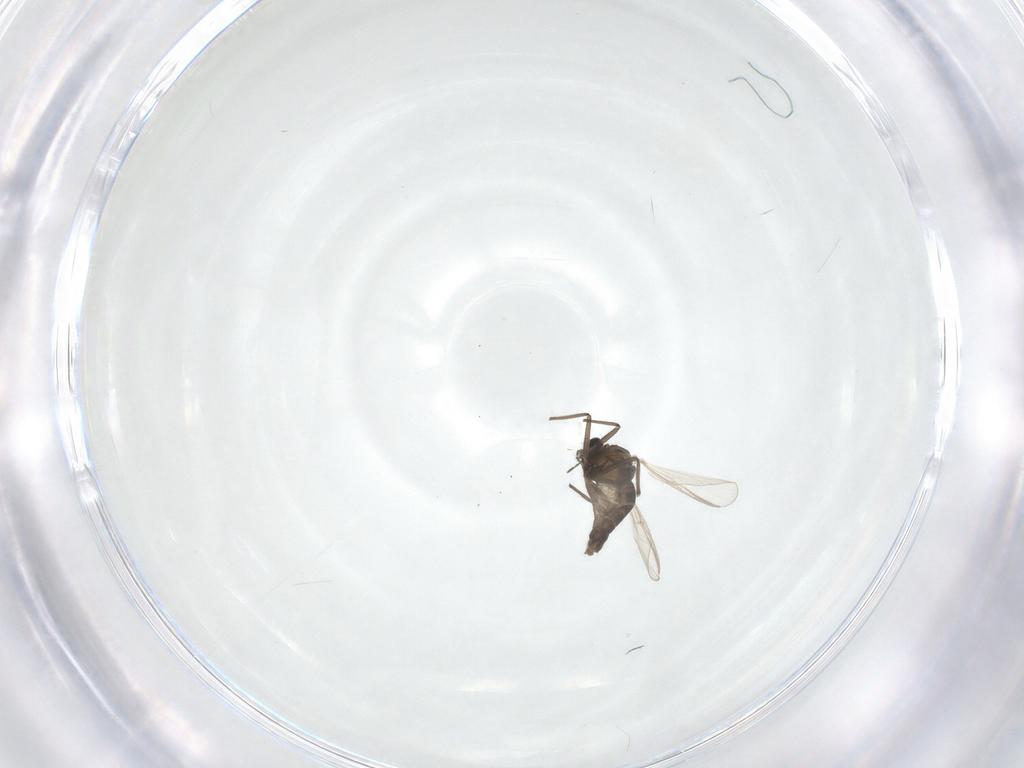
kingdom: Animalia
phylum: Arthropoda
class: Insecta
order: Diptera
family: Chironomidae
